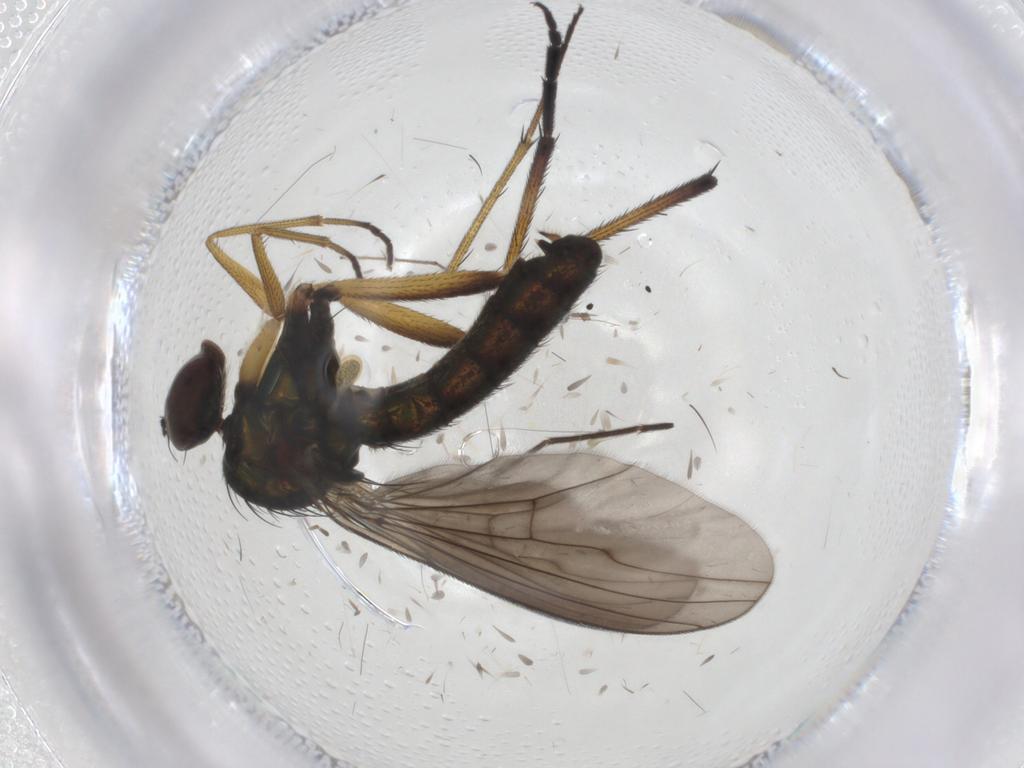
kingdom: Animalia
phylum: Arthropoda
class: Insecta
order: Diptera
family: Dolichopodidae
